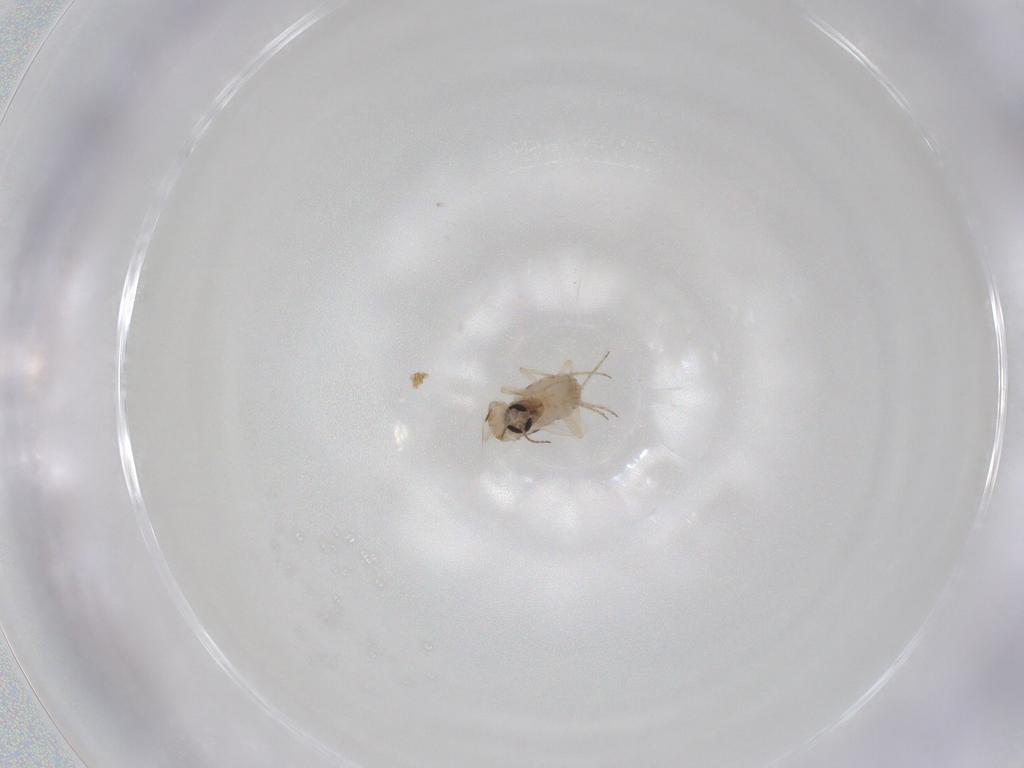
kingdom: Animalia
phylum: Arthropoda
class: Insecta
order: Diptera
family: Ceratopogonidae
